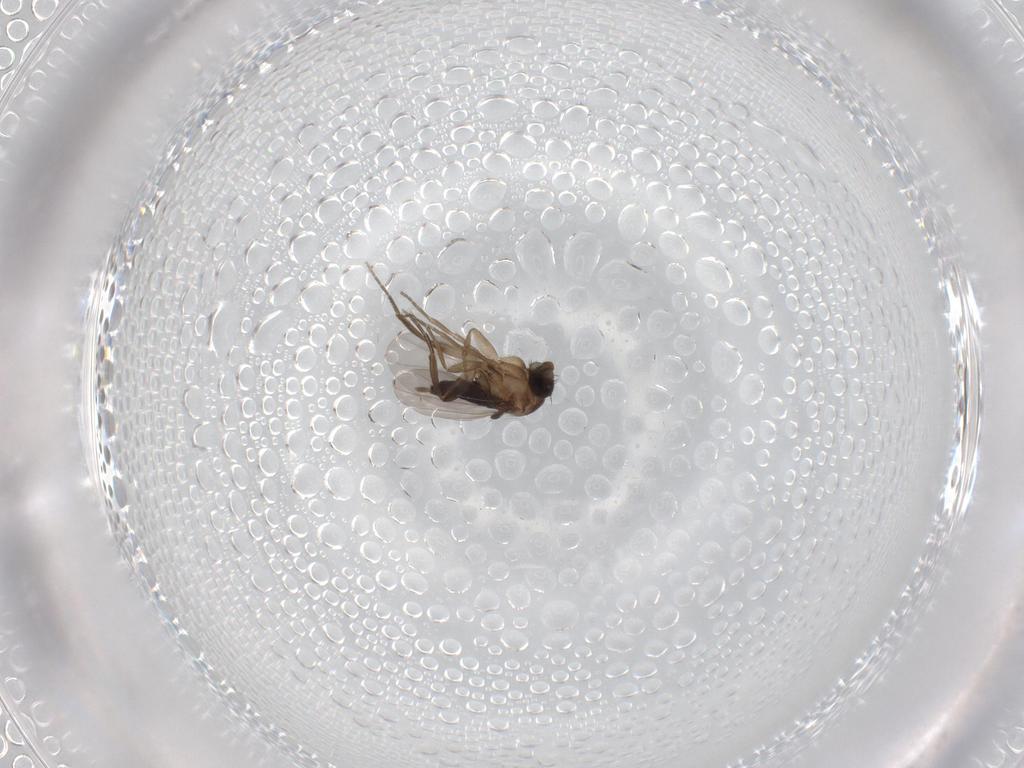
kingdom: Animalia
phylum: Arthropoda
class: Insecta
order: Diptera
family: Phoridae
